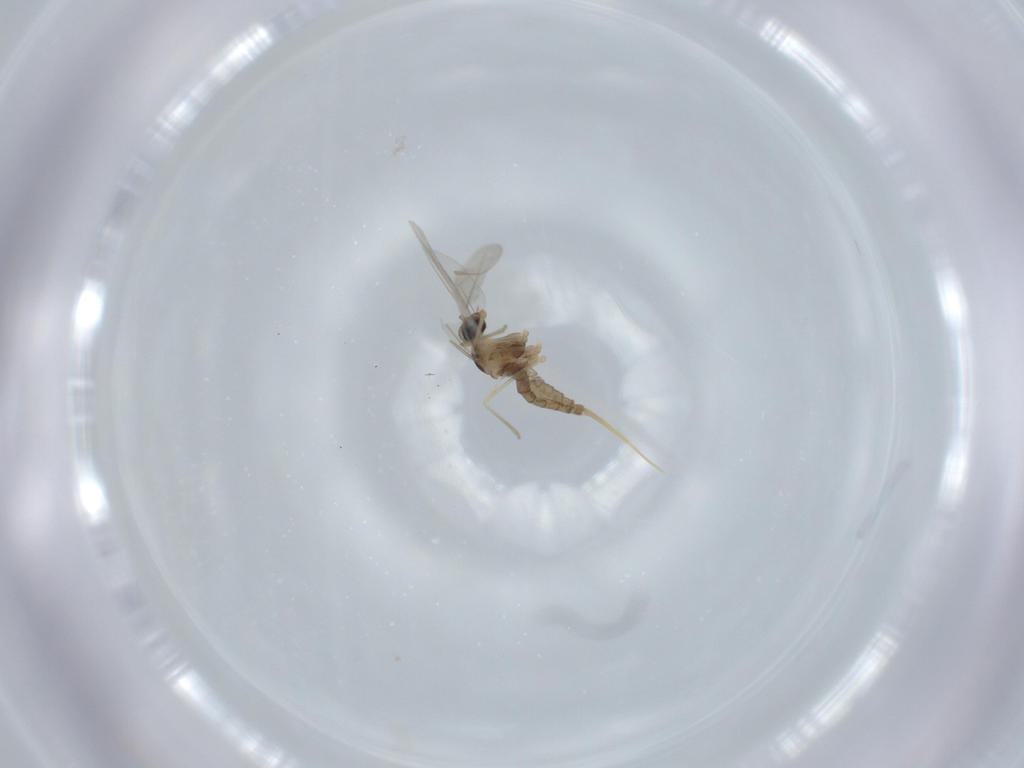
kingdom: Animalia
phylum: Arthropoda
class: Insecta
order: Diptera
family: Cecidomyiidae
